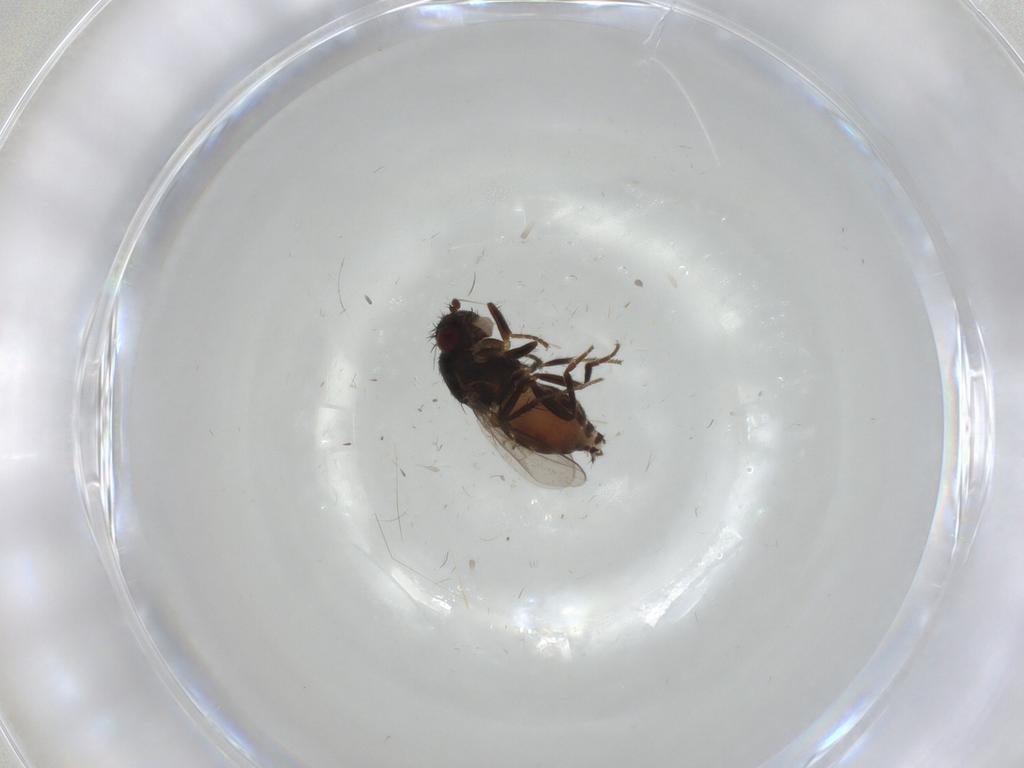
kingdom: Animalia
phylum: Arthropoda
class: Insecta
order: Diptera
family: Sphaeroceridae
